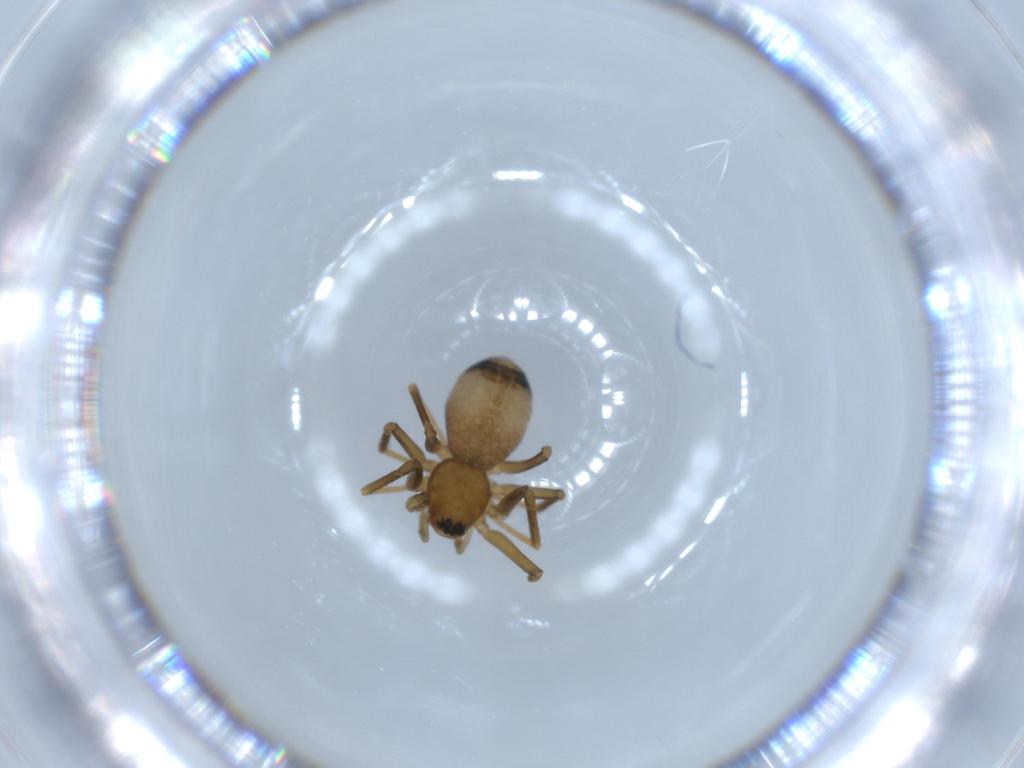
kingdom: Animalia
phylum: Arthropoda
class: Arachnida
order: Araneae
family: Linyphiidae
